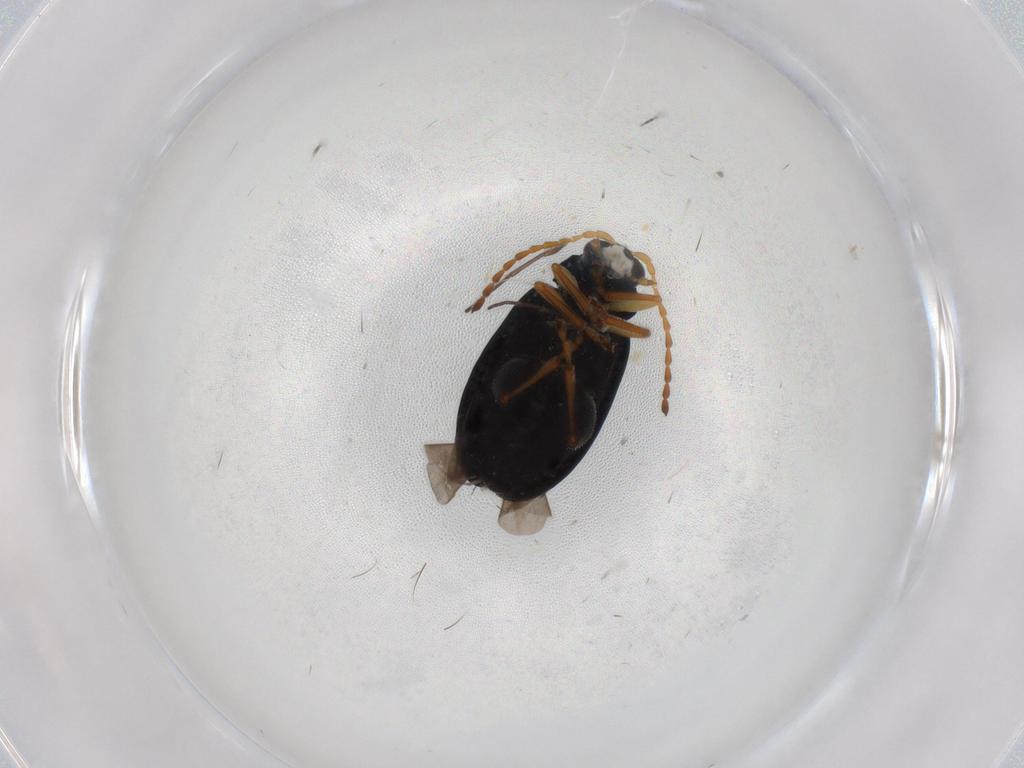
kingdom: Animalia
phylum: Arthropoda
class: Insecta
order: Coleoptera
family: Chrysomelidae
